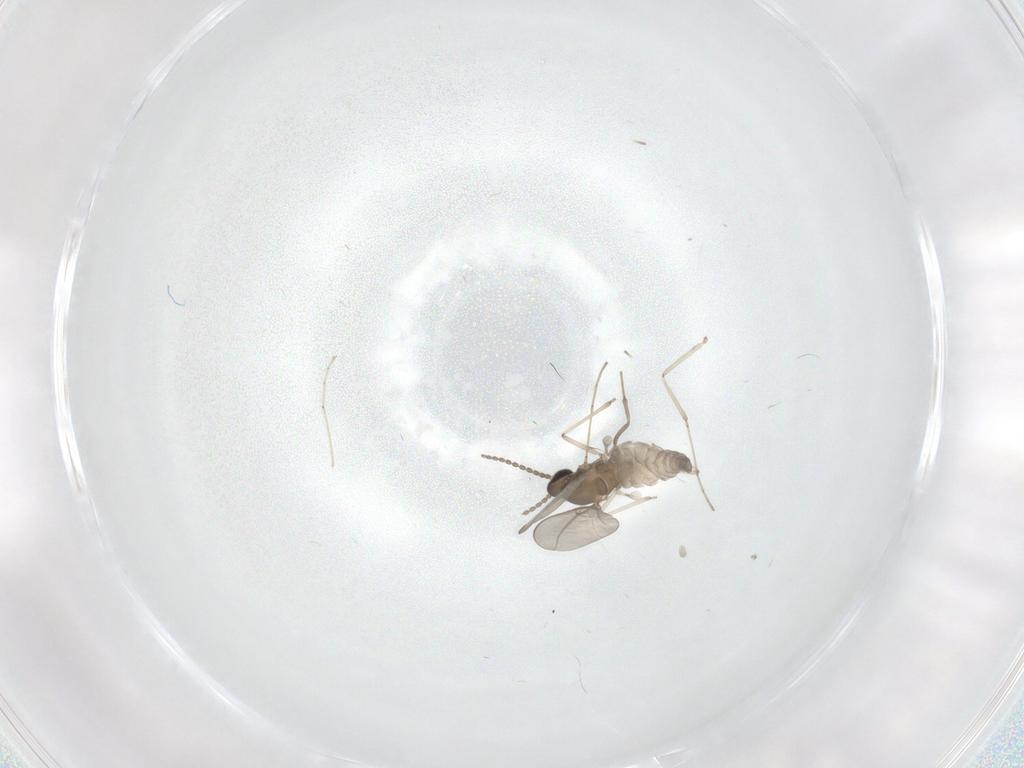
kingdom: Animalia
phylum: Arthropoda
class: Insecta
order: Diptera
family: Cecidomyiidae
